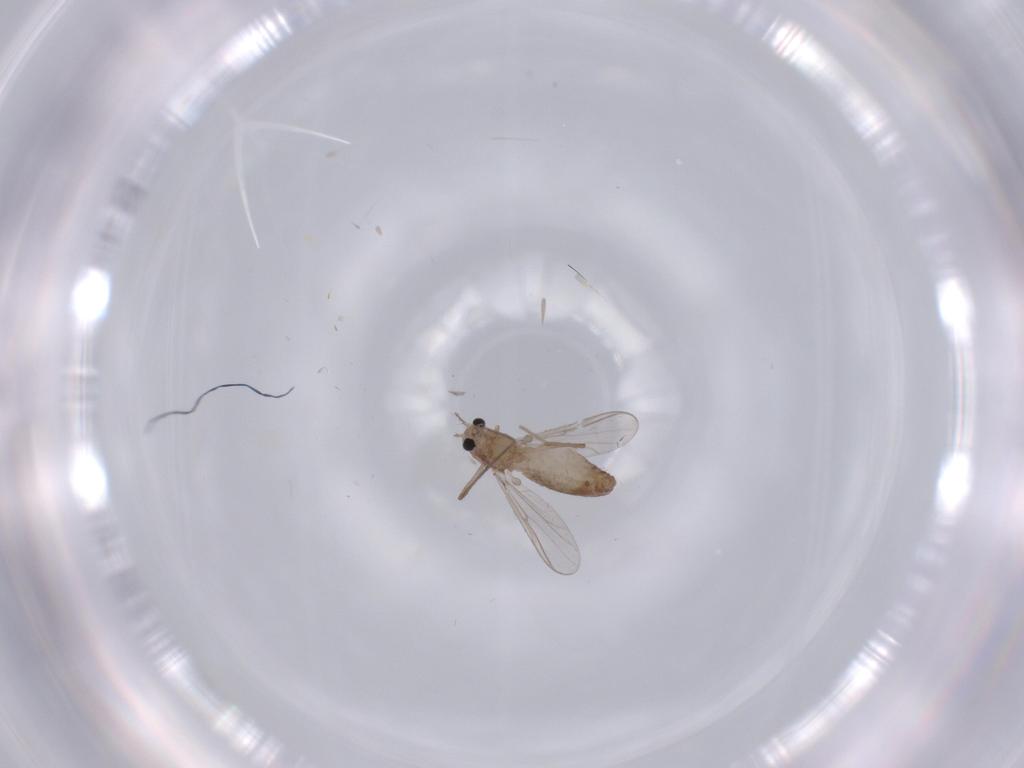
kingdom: Animalia
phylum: Arthropoda
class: Insecta
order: Diptera
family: Chironomidae
